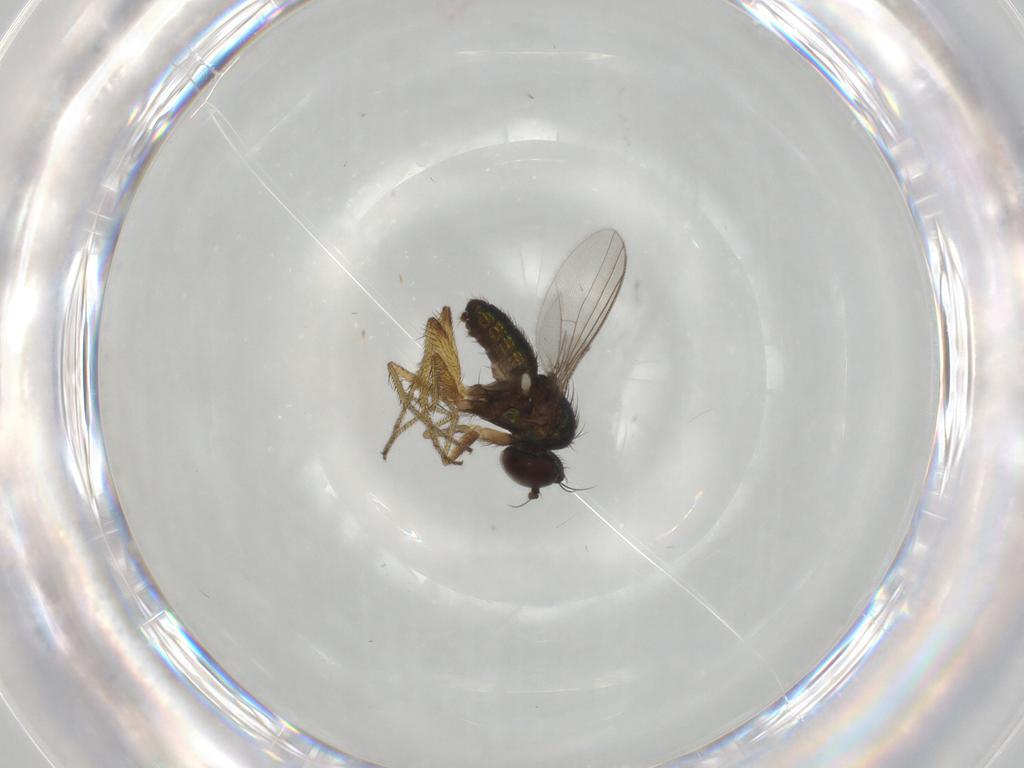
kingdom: Animalia
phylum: Arthropoda
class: Insecta
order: Diptera
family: Dolichopodidae
